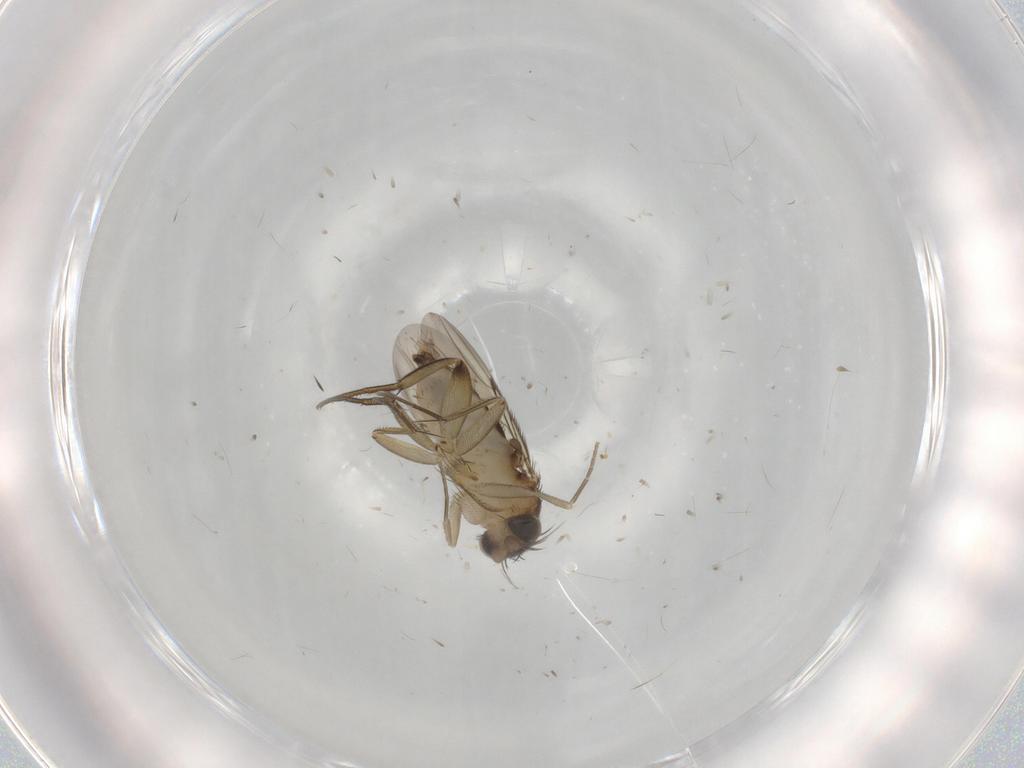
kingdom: Animalia
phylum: Arthropoda
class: Insecta
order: Diptera
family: Phoridae
